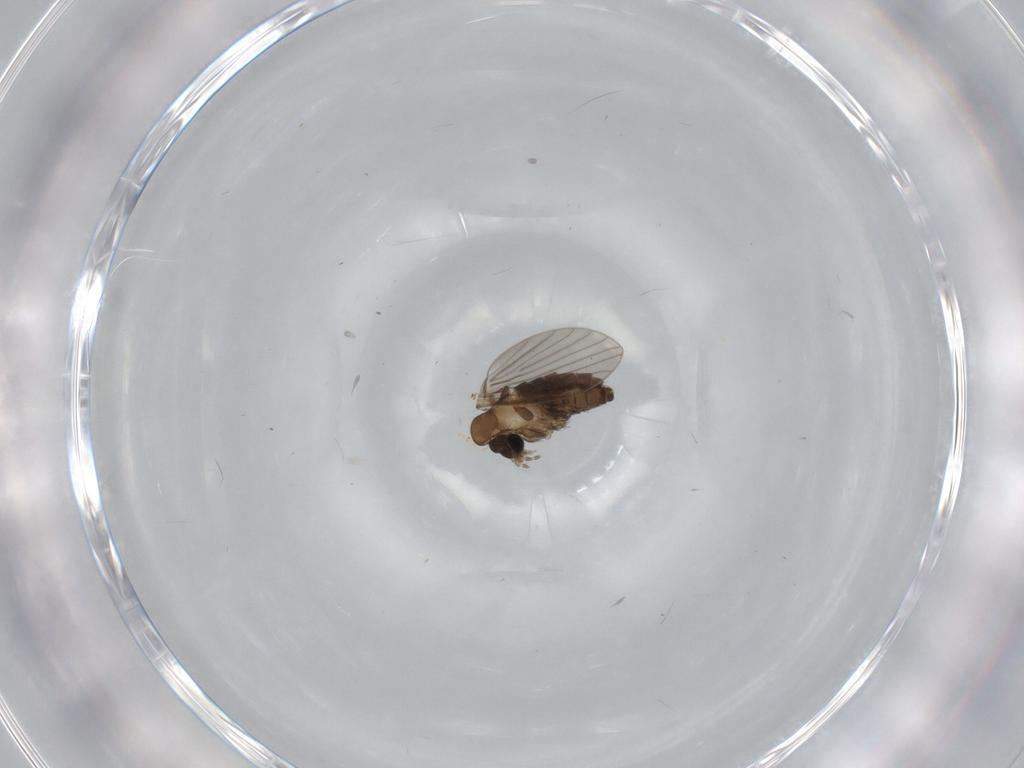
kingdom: Animalia
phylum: Arthropoda
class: Insecta
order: Diptera
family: Psychodidae
